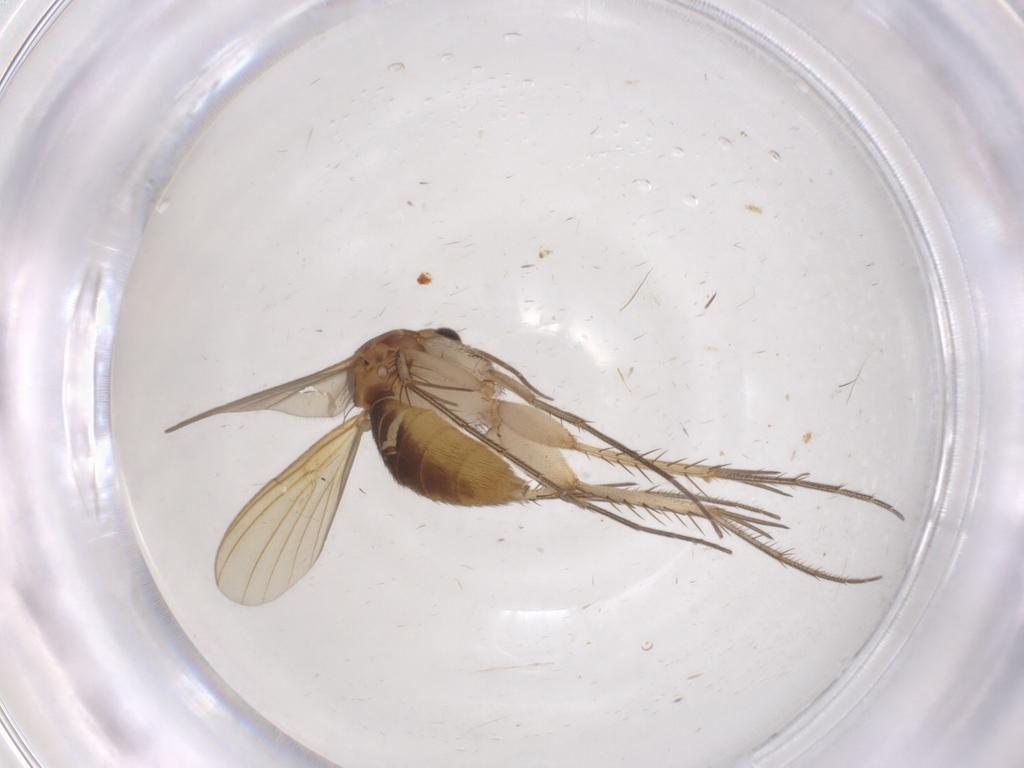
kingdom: Animalia
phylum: Arthropoda
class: Insecta
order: Diptera
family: Mycetophilidae
